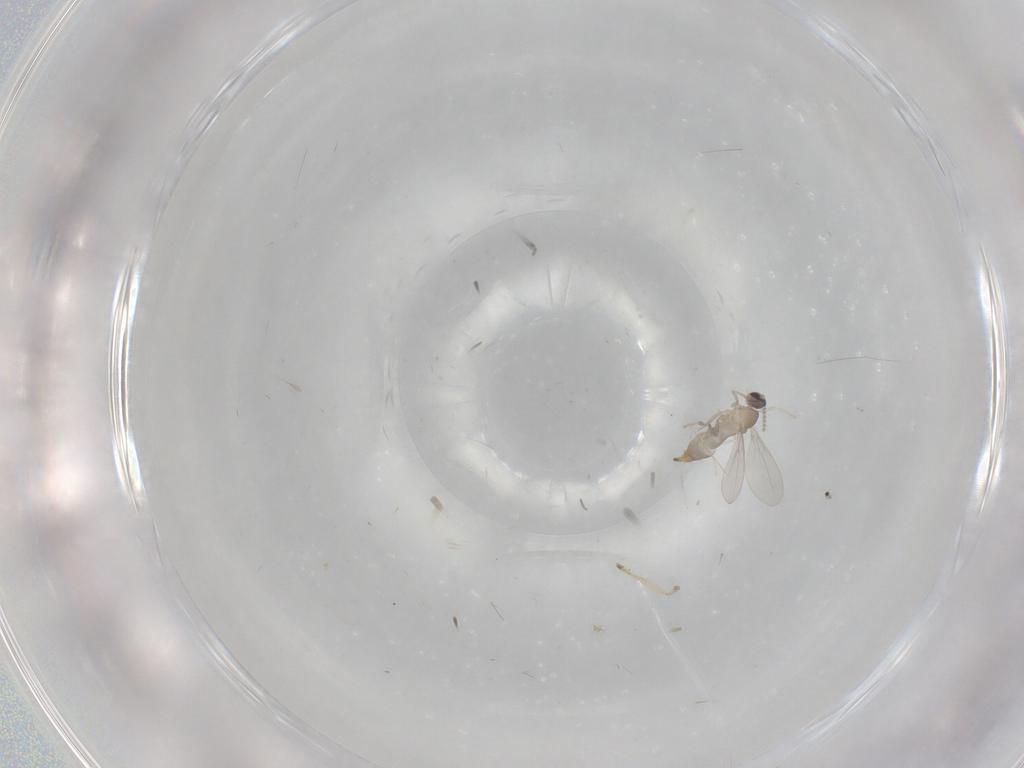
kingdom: Animalia
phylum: Arthropoda
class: Insecta
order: Diptera
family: Cecidomyiidae
